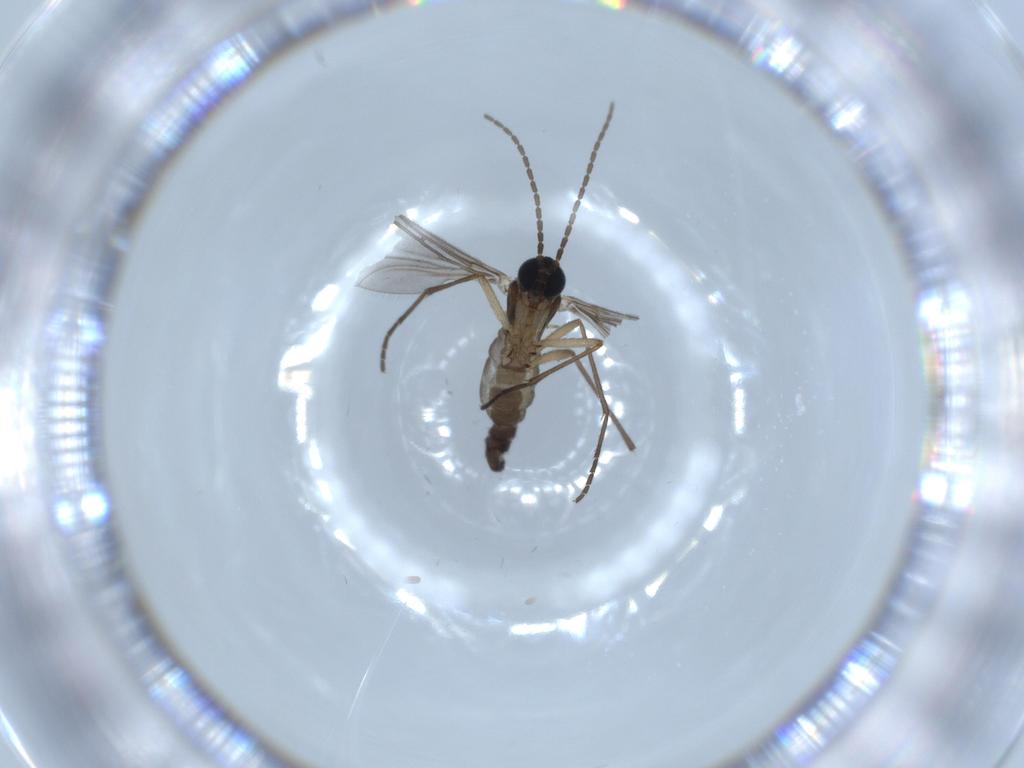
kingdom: Animalia
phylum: Arthropoda
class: Insecta
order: Diptera
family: Sciaridae
